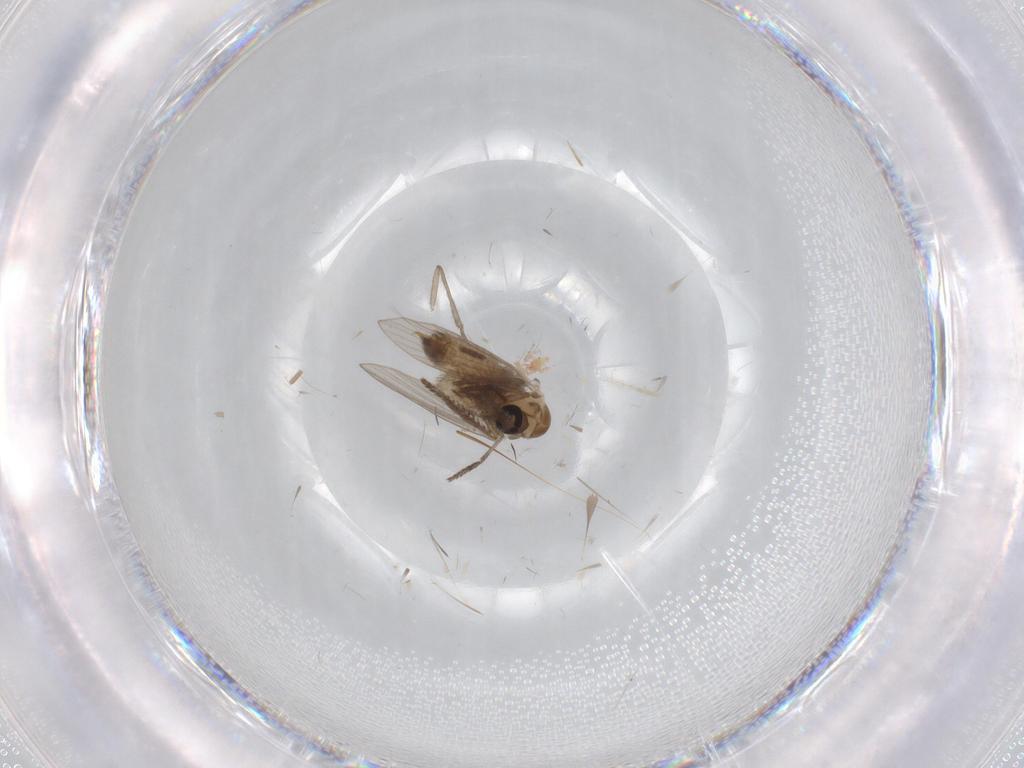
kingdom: Animalia
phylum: Arthropoda
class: Insecta
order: Diptera
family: Psychodidae
